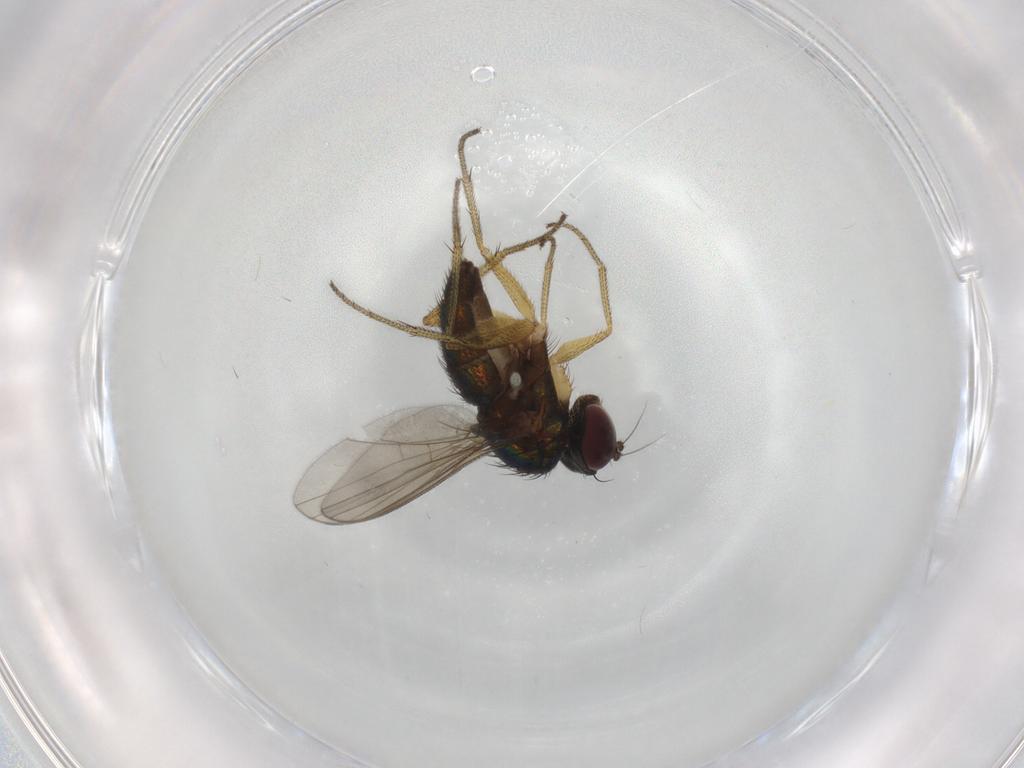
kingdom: Animalia
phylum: Arthropoda
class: Insecta
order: Diptera
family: Dolichopodidae
